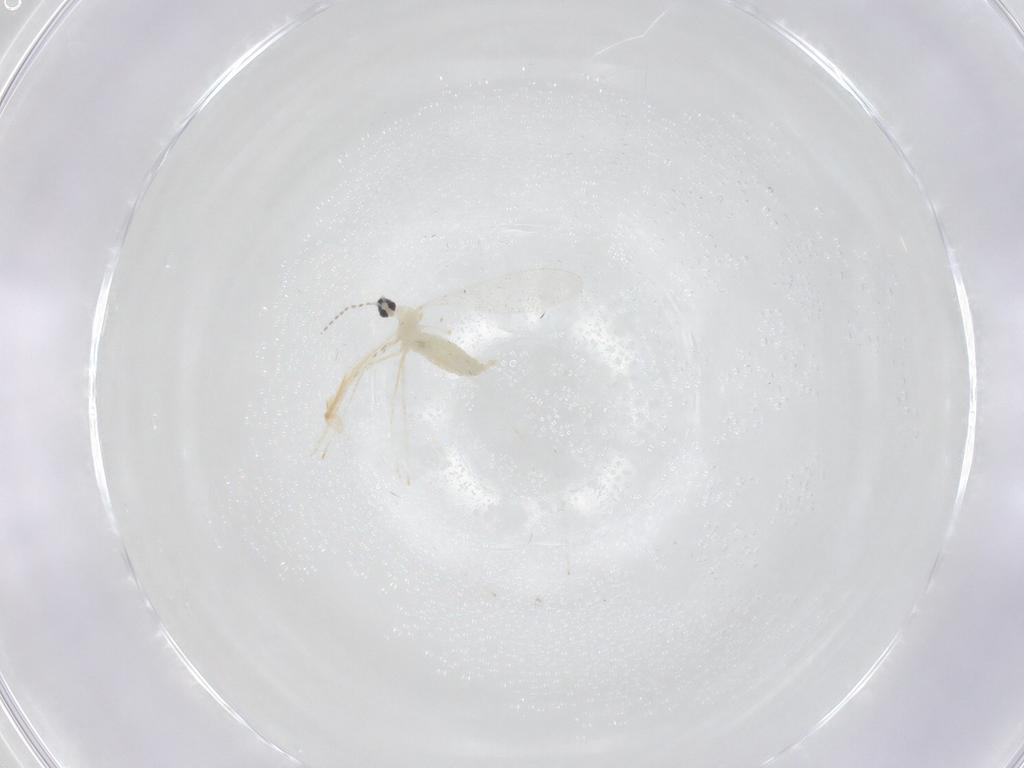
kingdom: Animalia
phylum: Arthropoda
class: Insecta
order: Diptera
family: Cecidomyiidae
